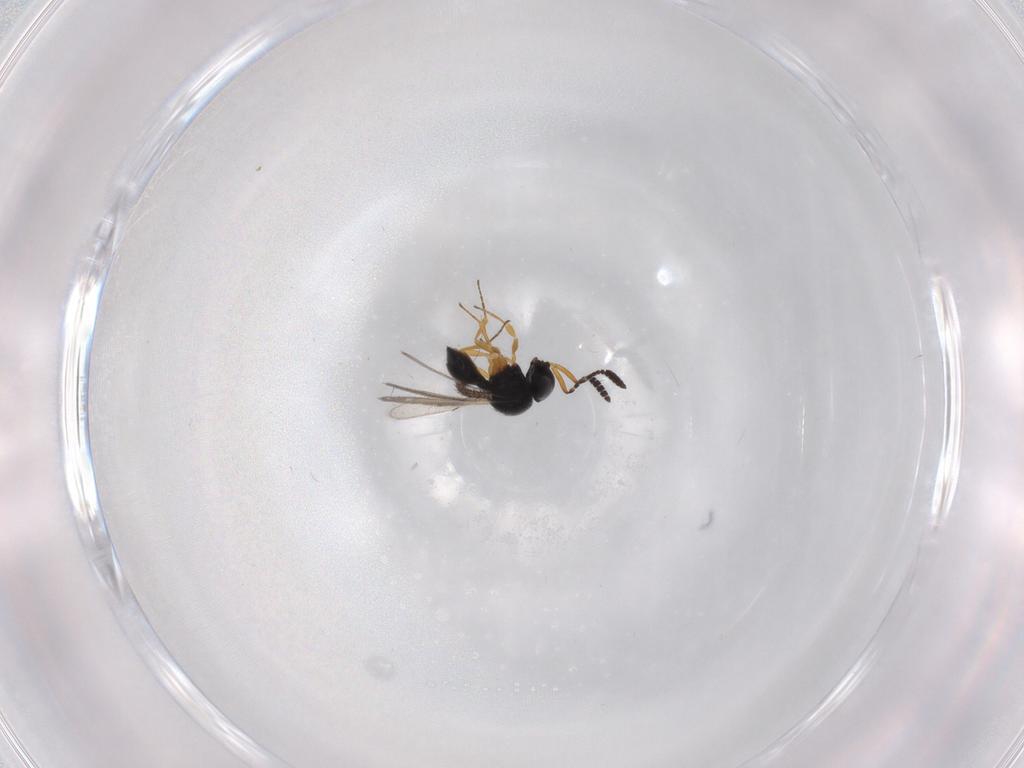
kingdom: Animalia
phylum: Arthropoda
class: Insecta
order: Hymenoptera
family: Scelionidae
